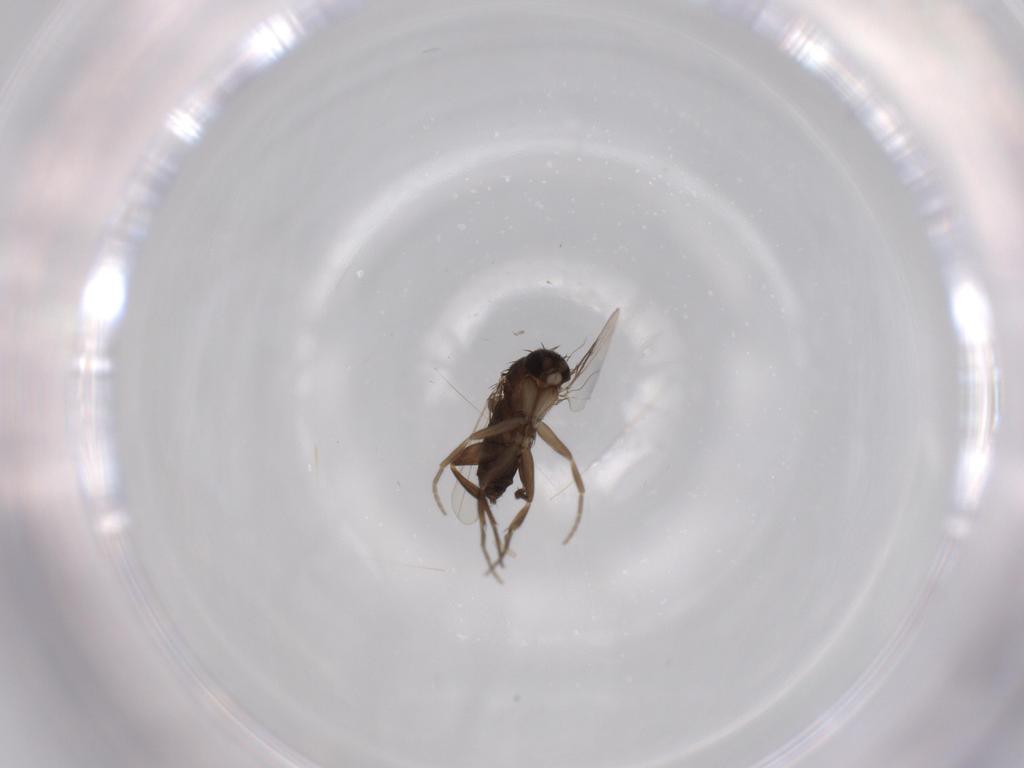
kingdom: Animalia
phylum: Arthropoda
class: Insecta
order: Diptera
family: Phoridae
